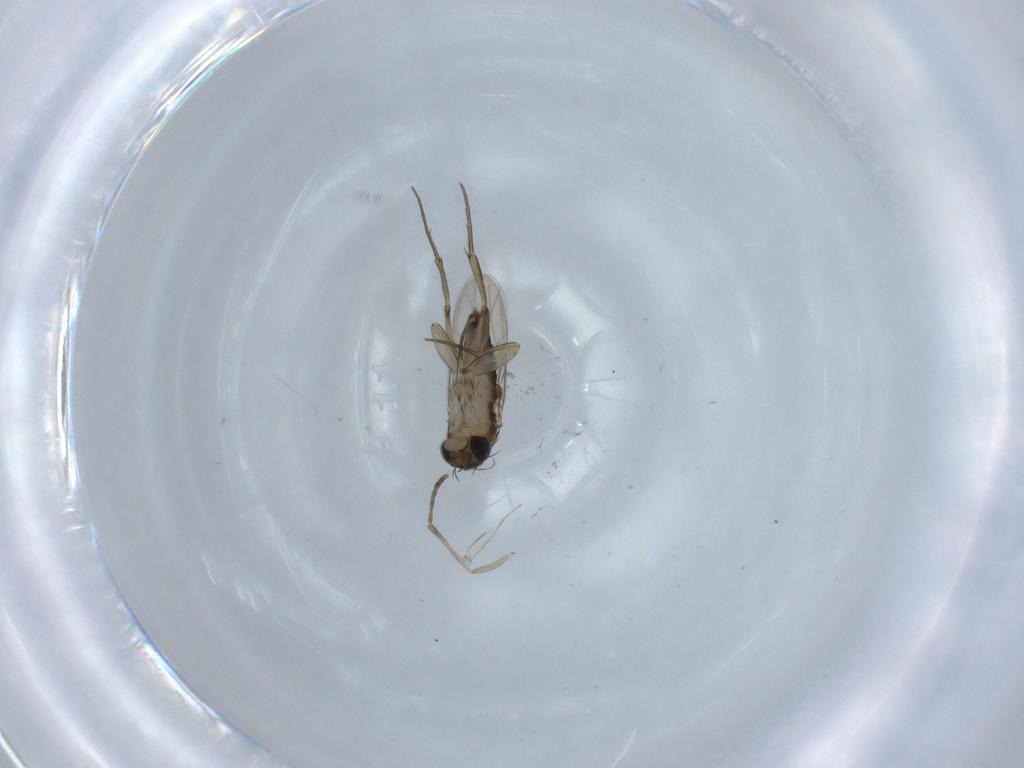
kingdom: Animalia
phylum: Arthropoda
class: Insecta
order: Diptera
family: Phoridae
